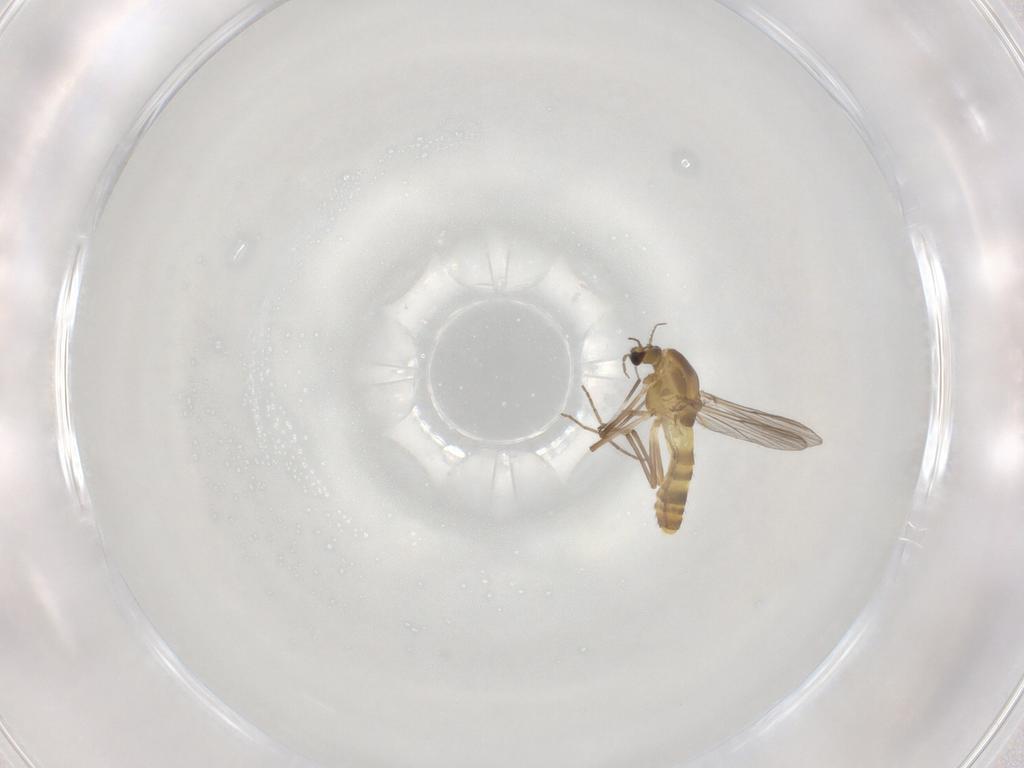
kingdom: Animalia
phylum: Arthropoda
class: Insecta
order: Diptera
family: Chironomidae
